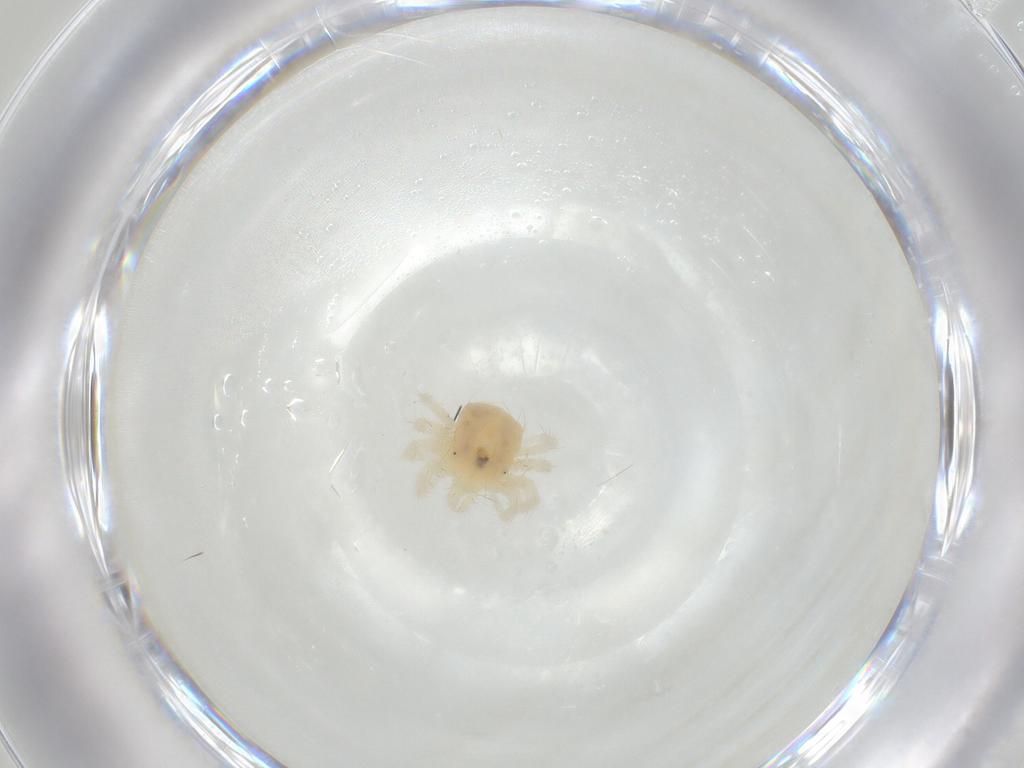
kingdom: Animalia
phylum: Arthropoda
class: Arachnida
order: Trombidiformes
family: Anystidae
